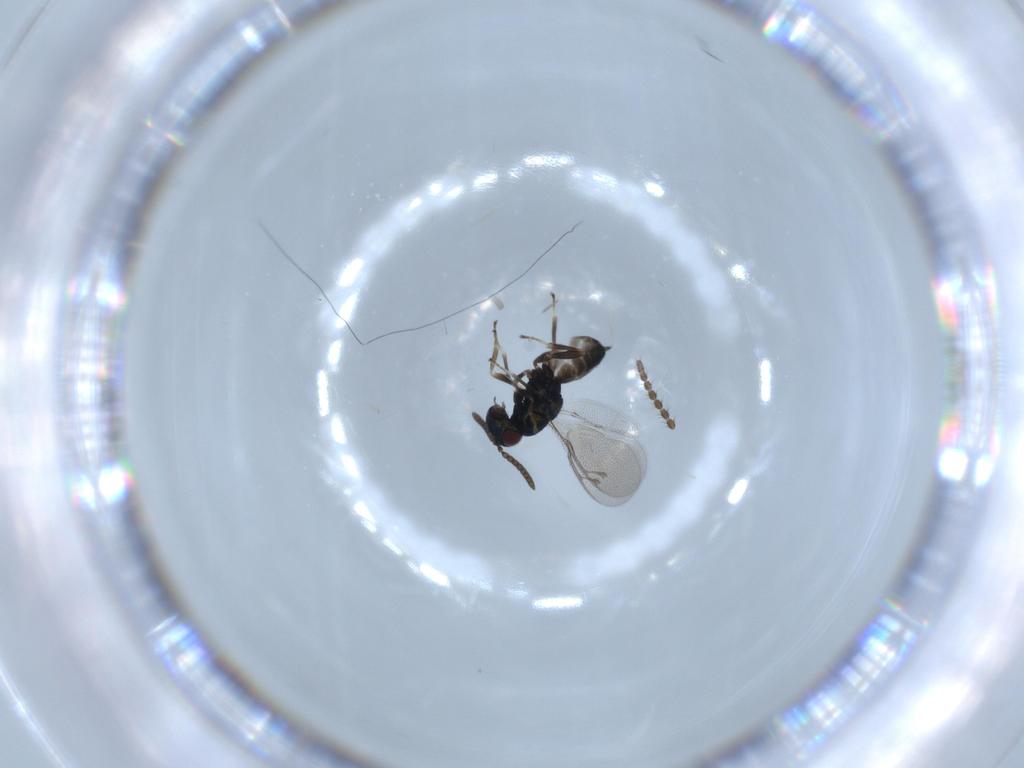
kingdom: Animalia
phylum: Arthropoda
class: Insecta
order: Hymenoptera
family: Pteromalidae
